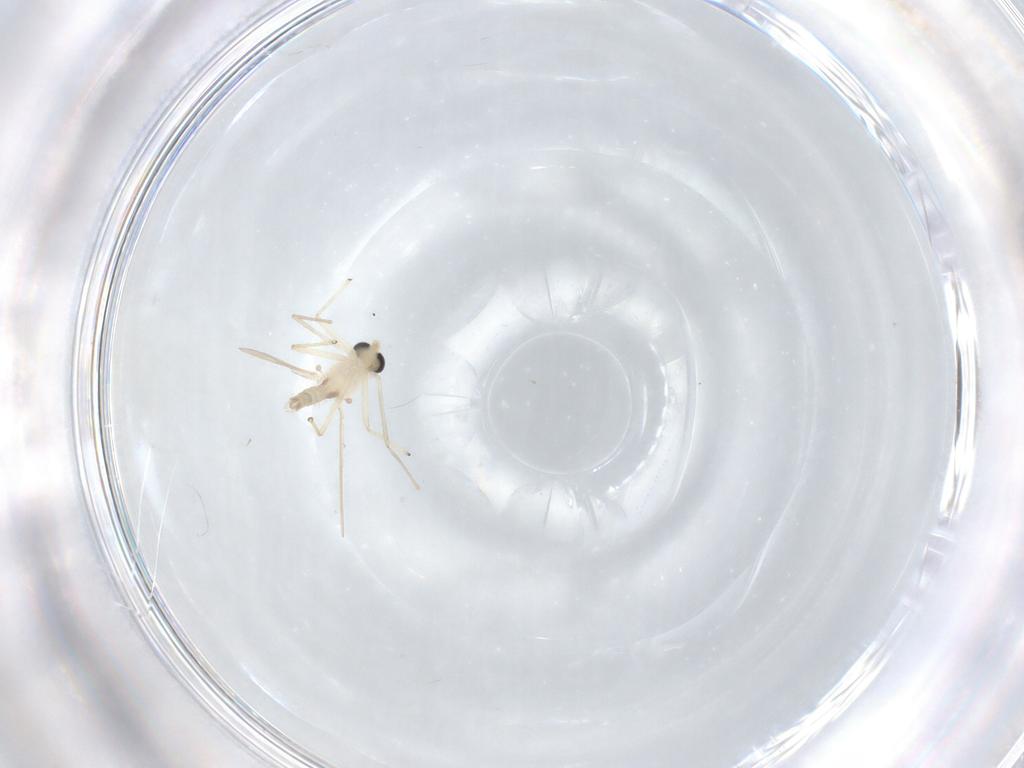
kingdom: Animalia
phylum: Arthropoda
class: Insecta
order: Diptera
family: Chironomidae
